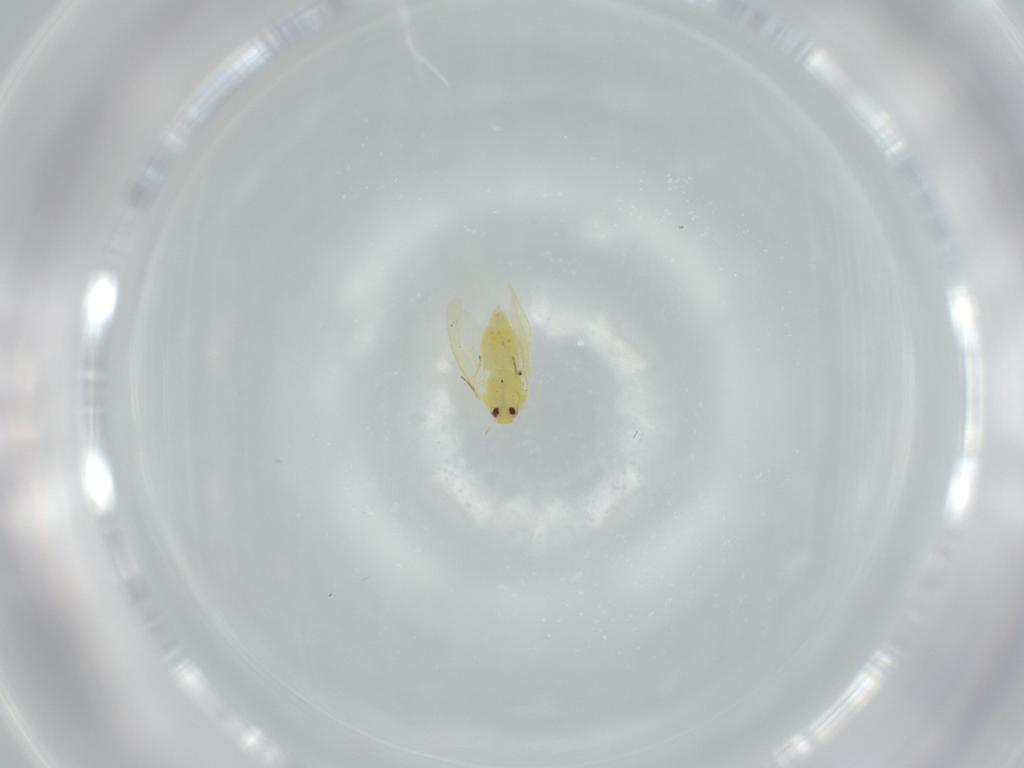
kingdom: Animalia
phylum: Arthropoda
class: Insecta
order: Hemiptera
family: Aleyrodidae
